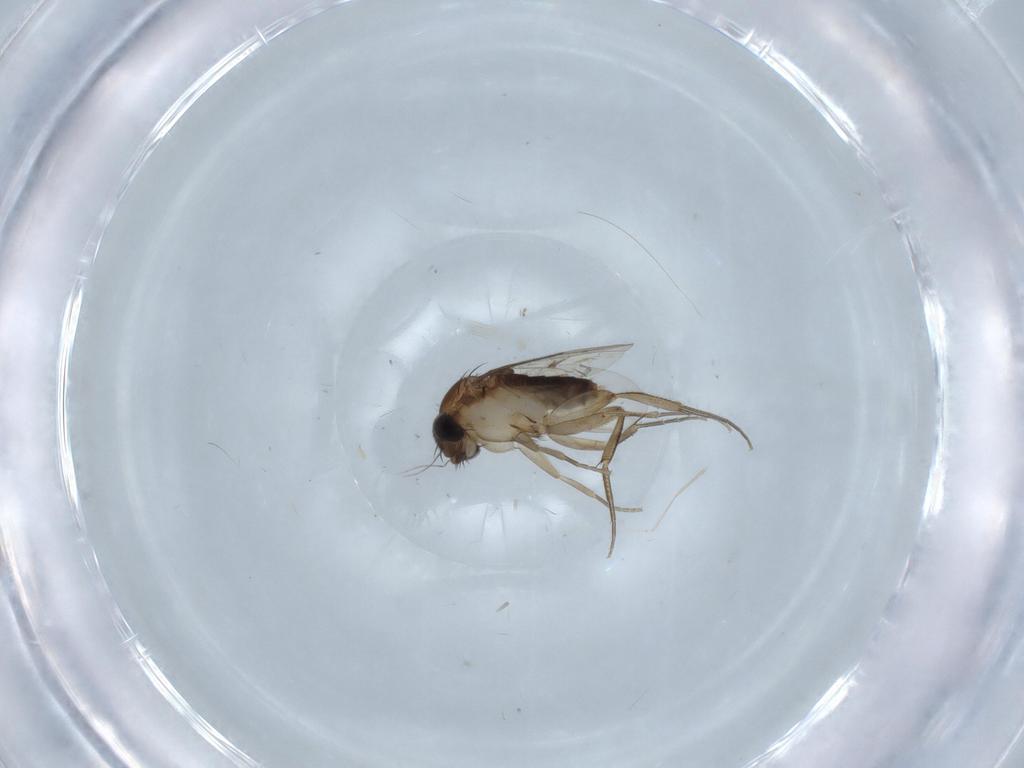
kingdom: Animalia
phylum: Arthropoda
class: Insecta
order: Diptera
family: Phoridae
